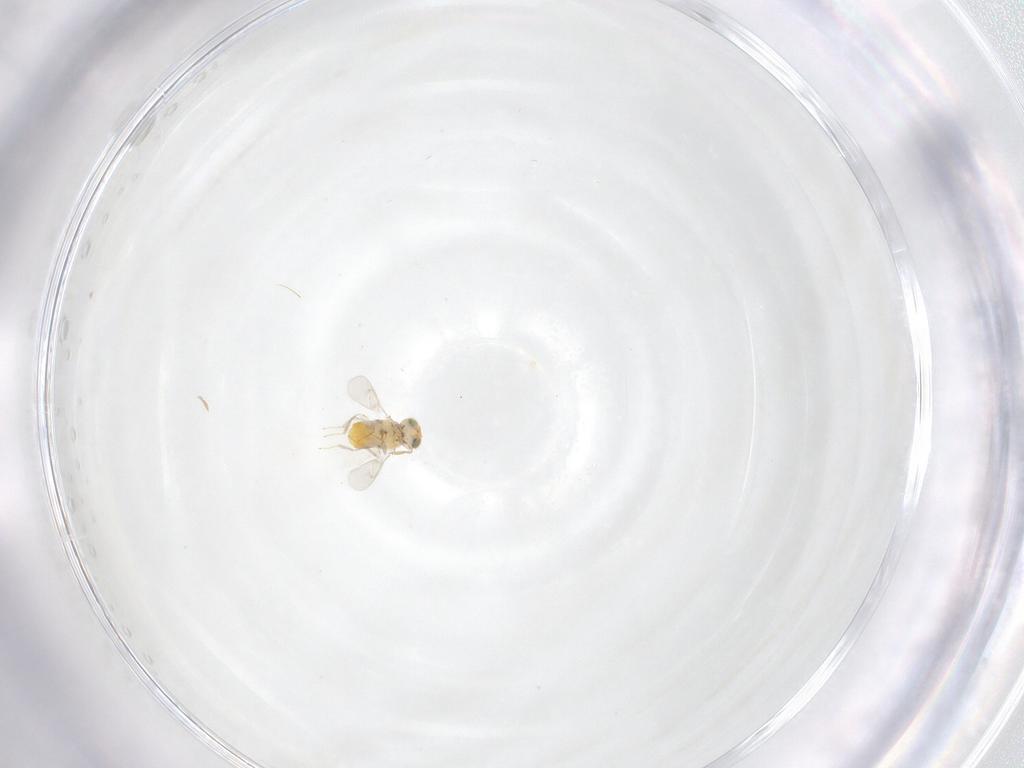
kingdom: Animalia
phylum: Arthropoda
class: Insecta
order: Hymenoptera
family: Aphelinidae
